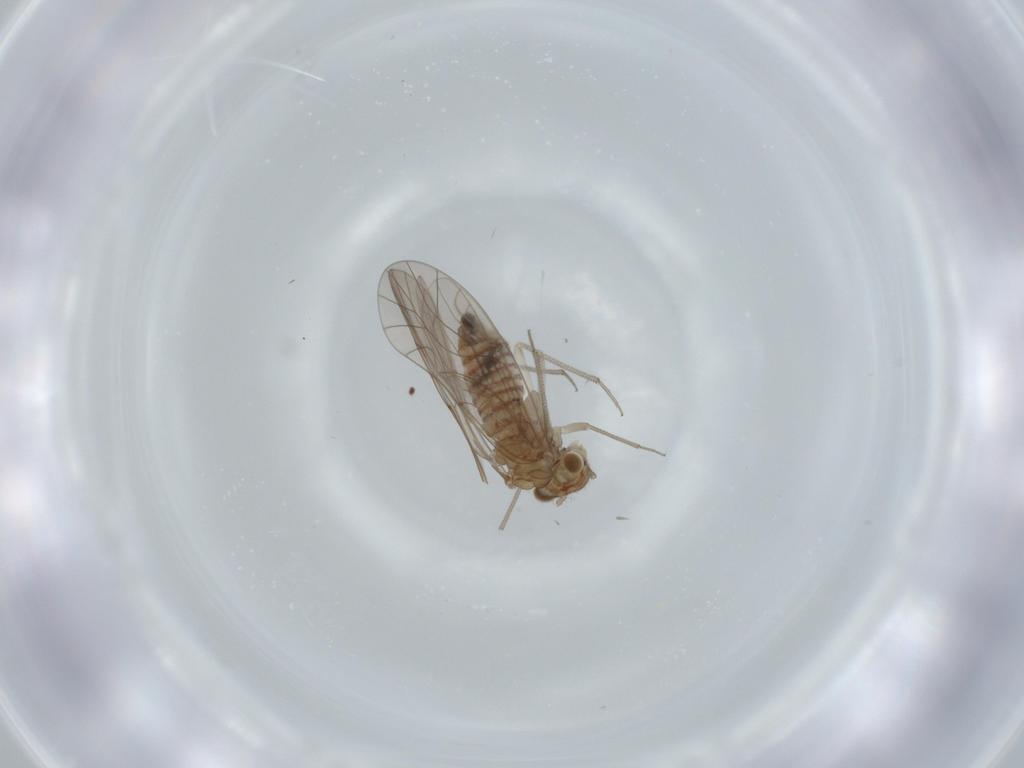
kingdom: Animalia
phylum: Arthropoda
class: Insecta
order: Psocodea
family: Lachesillidae
